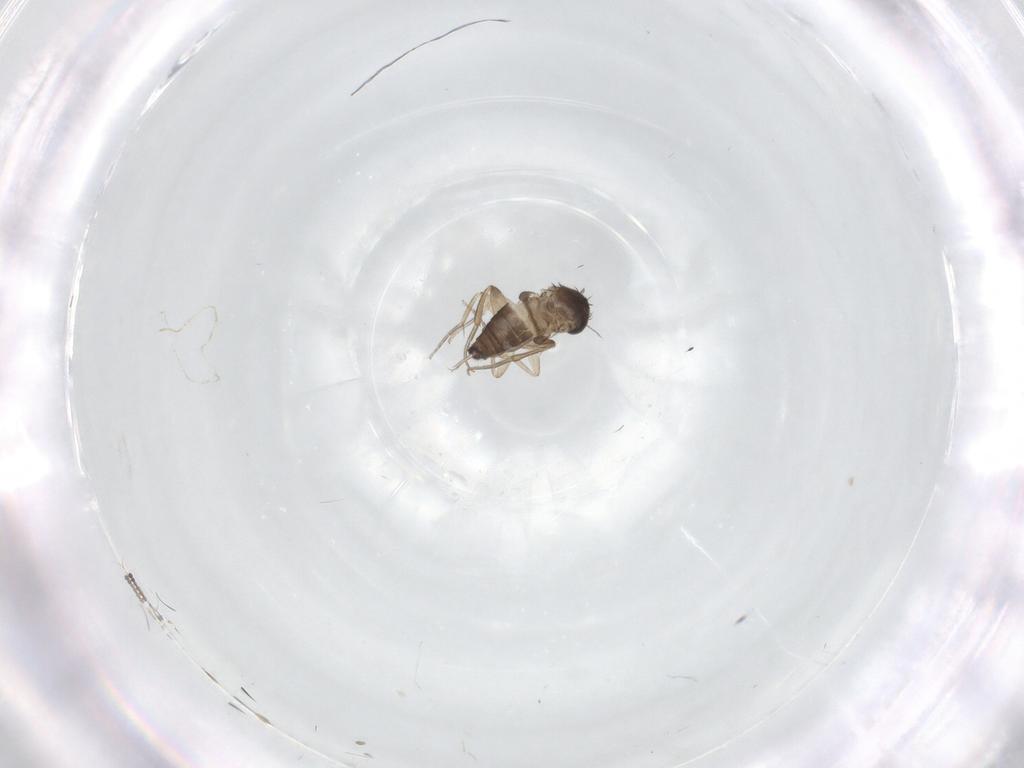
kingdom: Animalia
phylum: Arthropoda
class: Insecta
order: Diptera
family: Phoridae
